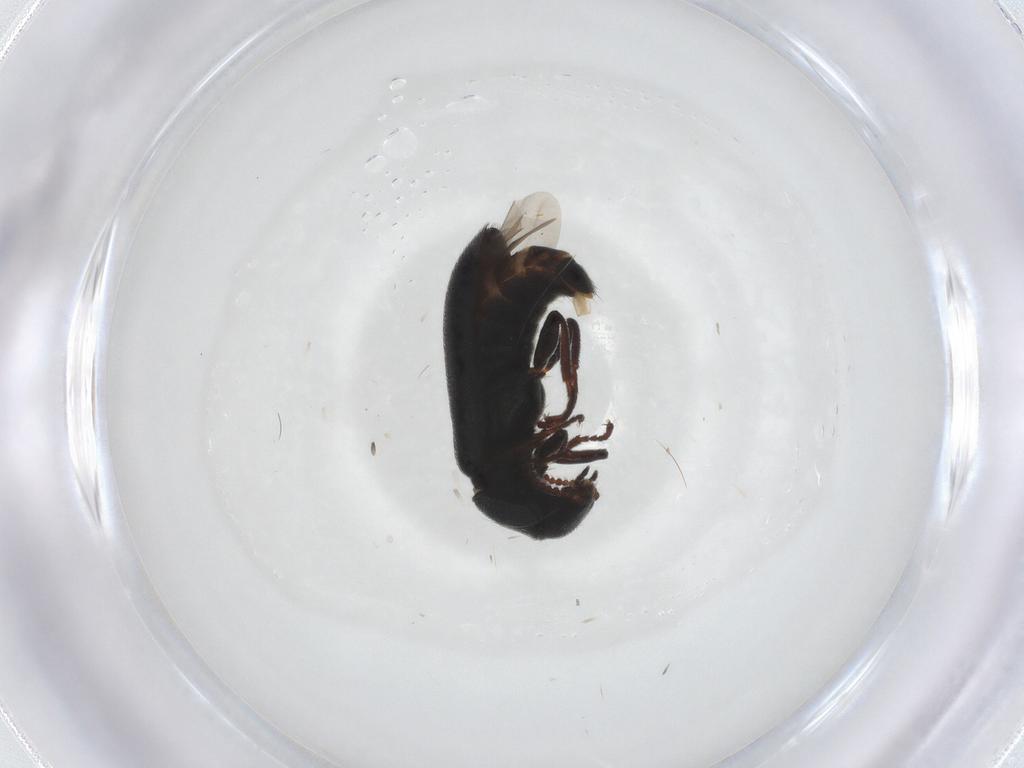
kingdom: Animalia
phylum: Arthropoda
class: Insecta
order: Coleoptera
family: Melyridae
